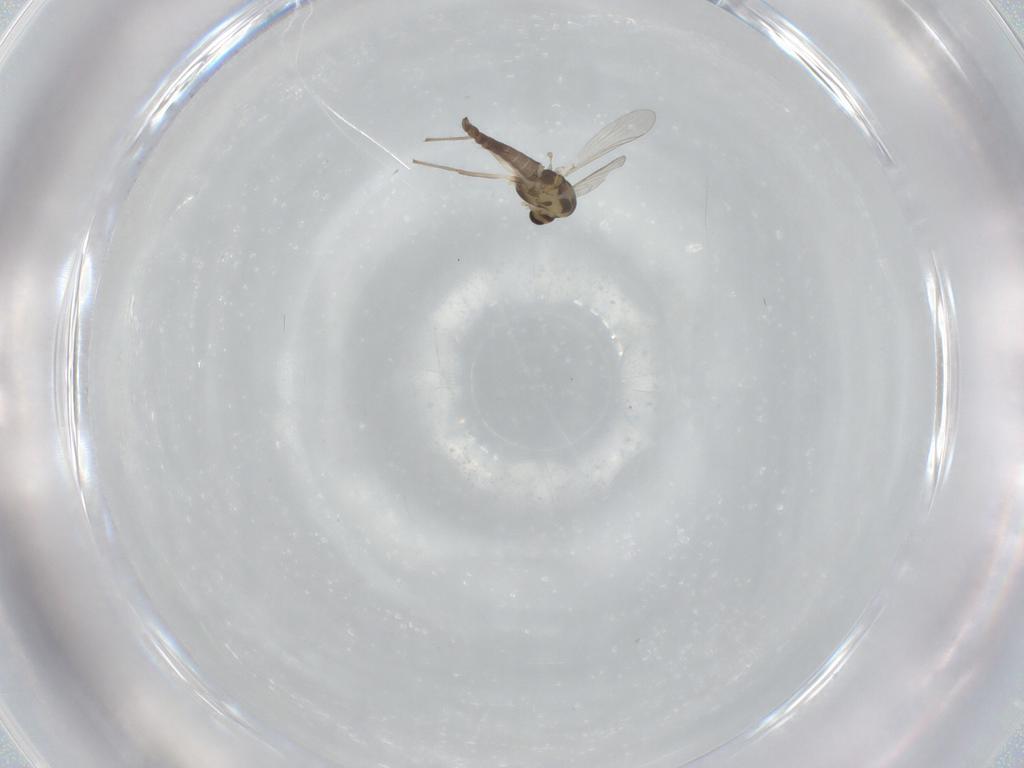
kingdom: Animalia
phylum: Arthropoda
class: Insecta
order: Diptera
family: Chironomidae
